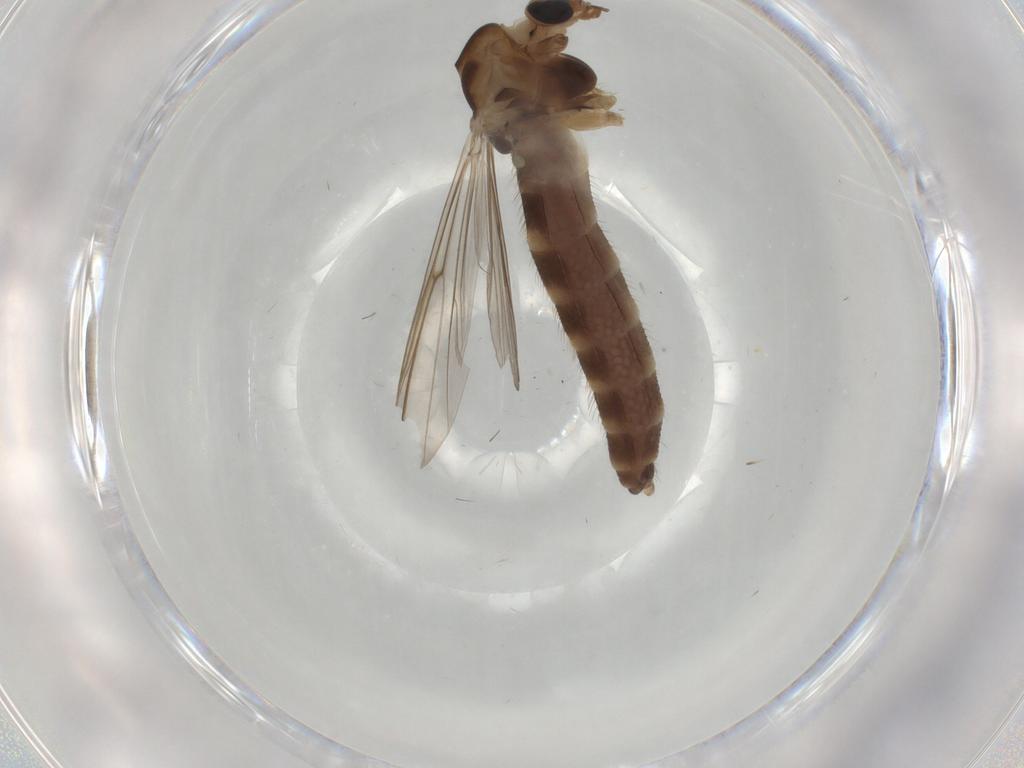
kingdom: Animalia
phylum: Arthropoda
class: Insecta
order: Diptera
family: Chironomidae
